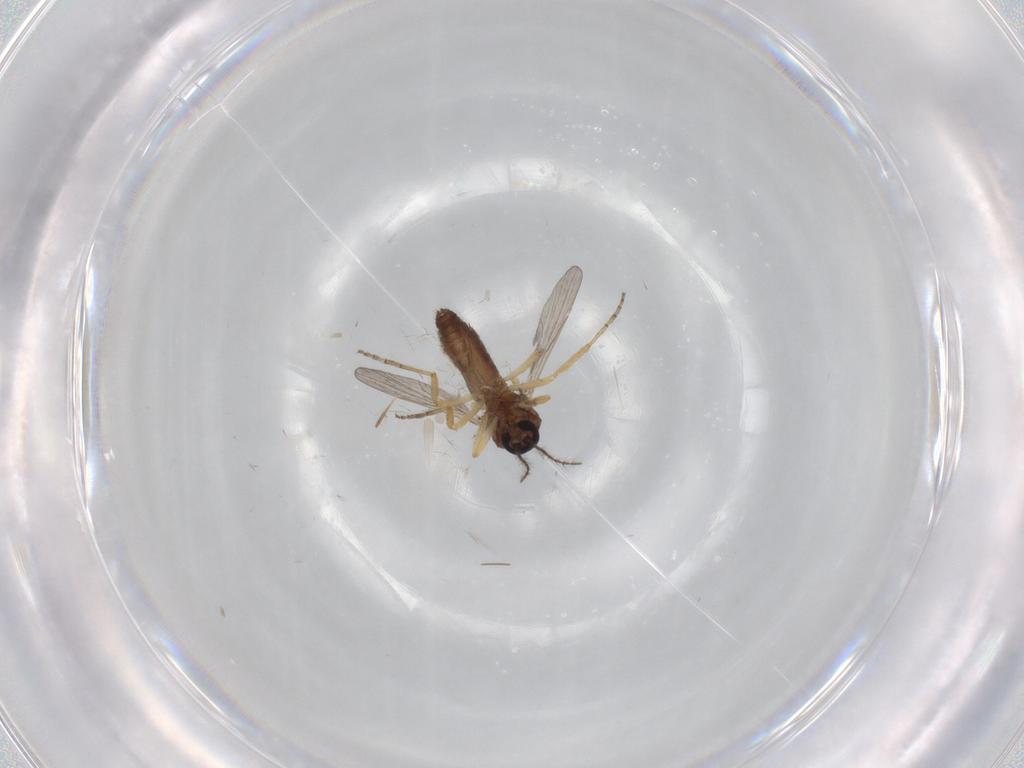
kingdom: Animalia
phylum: Arthropoda
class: Insecta
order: Diptera
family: Ceratopogonidae
